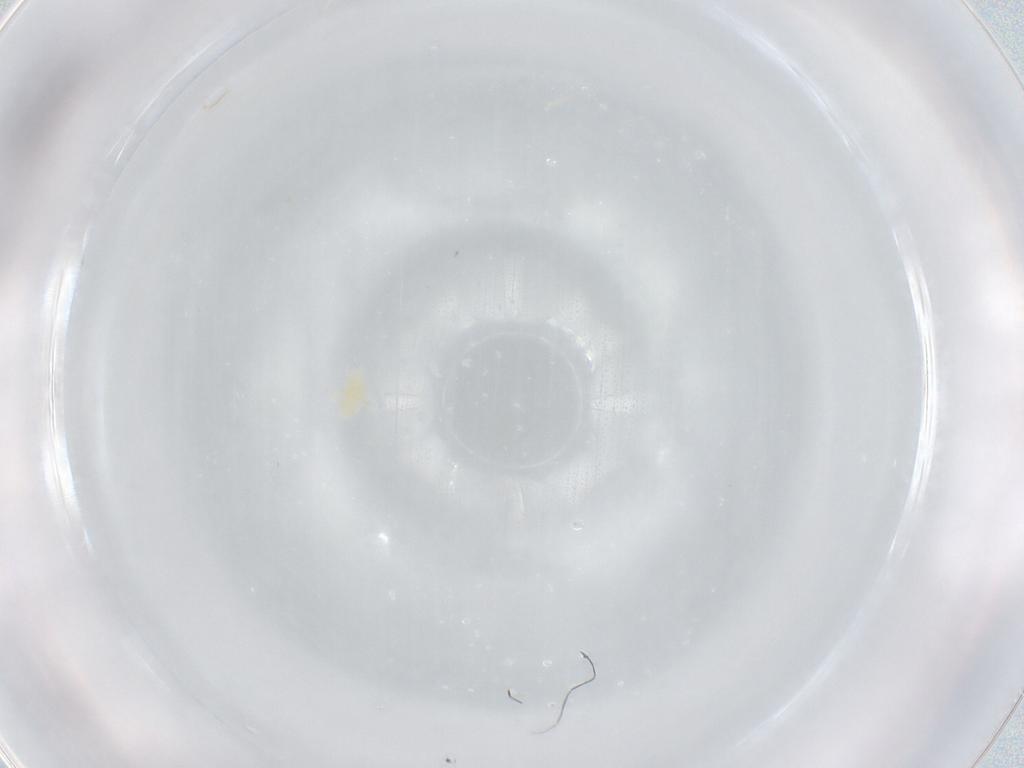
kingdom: Animalia
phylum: Arthropoda
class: Arachnida
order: Trombidiformes
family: Eupodidae
